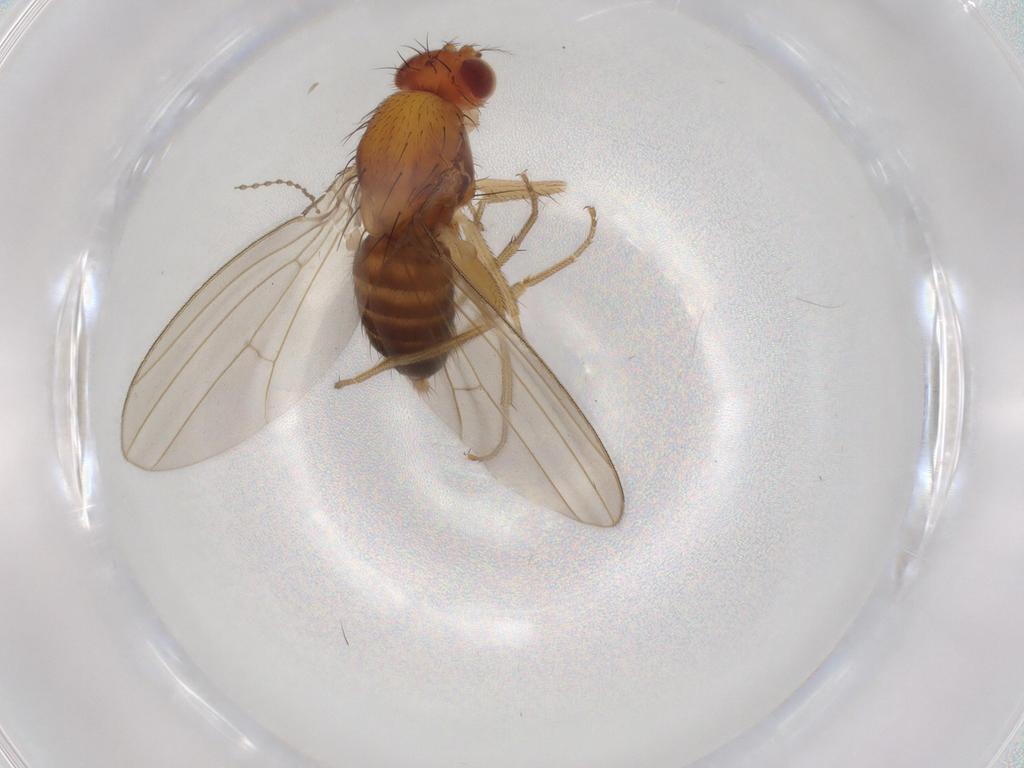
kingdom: Animalia
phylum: Arthropoda
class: Insecta
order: Diptera
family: Drosophilidae
